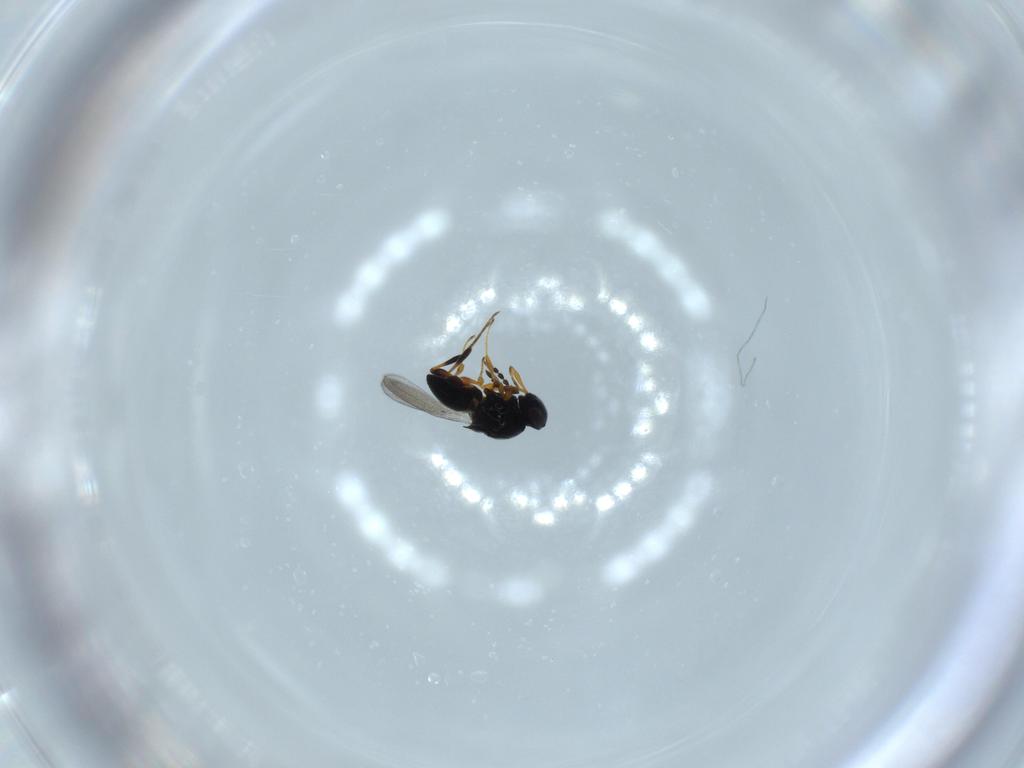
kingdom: Animalia
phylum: Arthropoda
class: Insecta
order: Hymenoptera
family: Platygastridae
